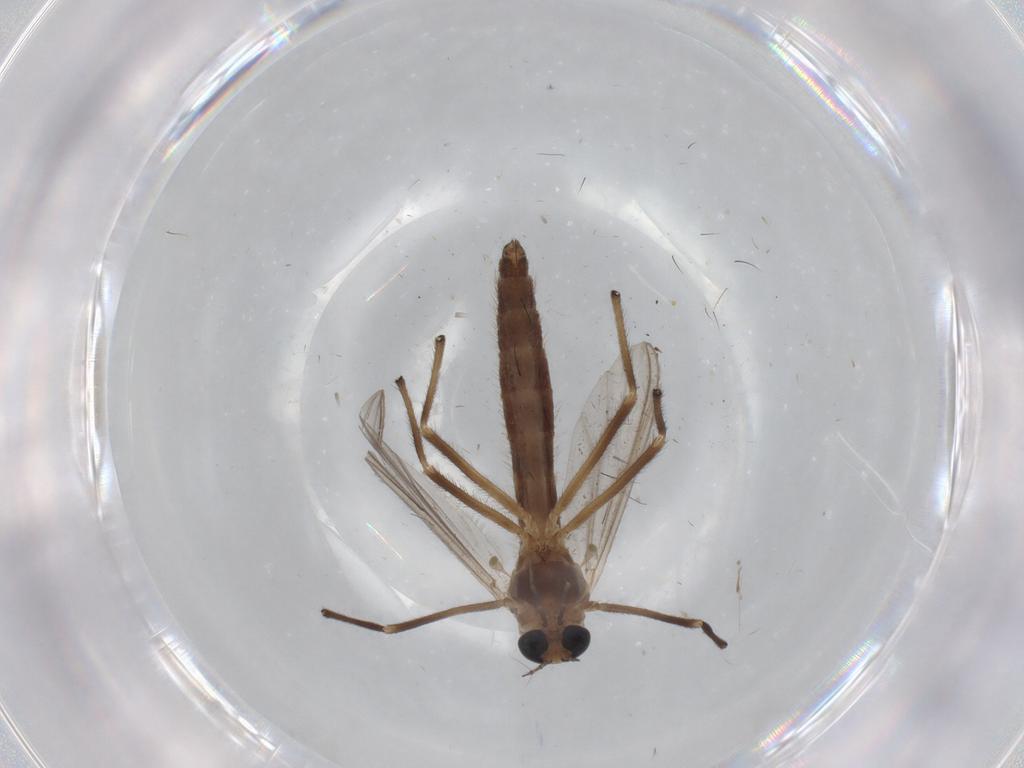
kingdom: Animalia
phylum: Arthropoda
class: Insecta
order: Diptera
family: Chironomidae
